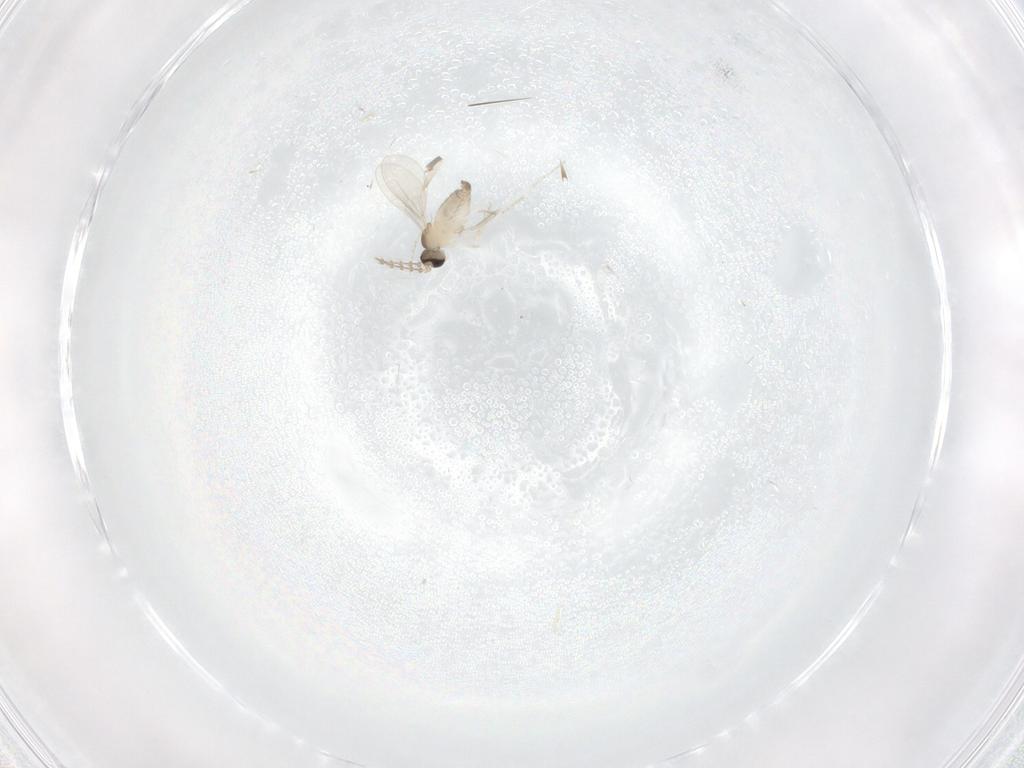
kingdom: Animalia
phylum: Arthropoda
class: Insecta
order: Diptera
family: Cecidomyiidae
